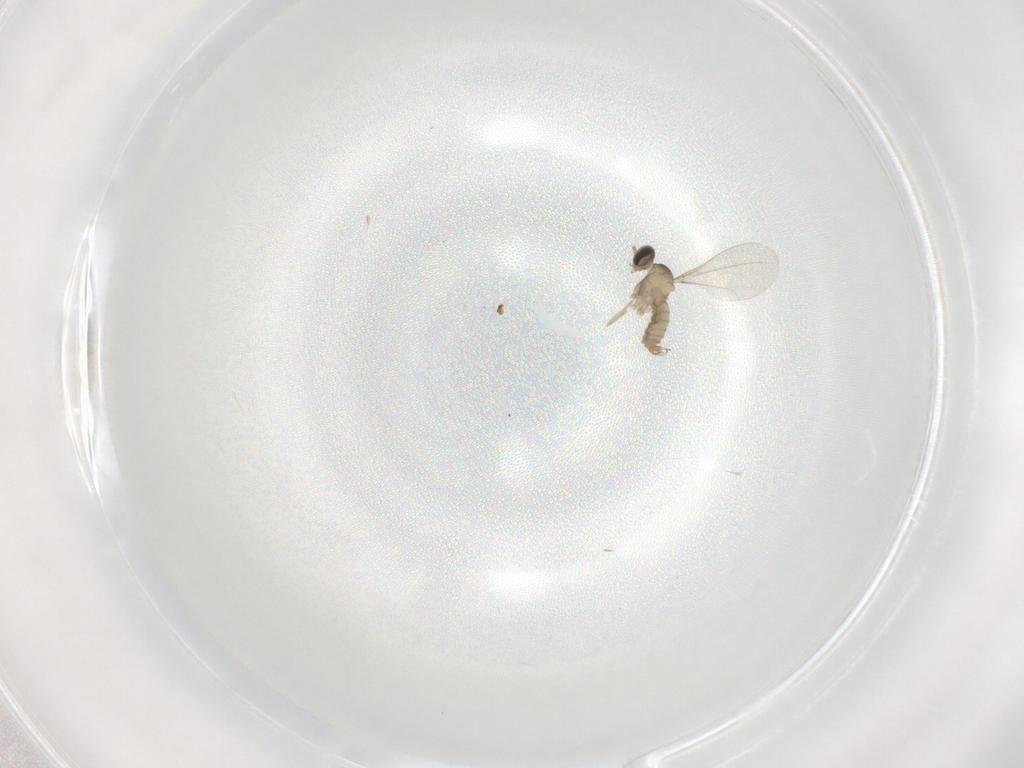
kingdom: Animalia
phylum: Arthropoda
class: Insecta
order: Diptera
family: Cecidomyiidae
